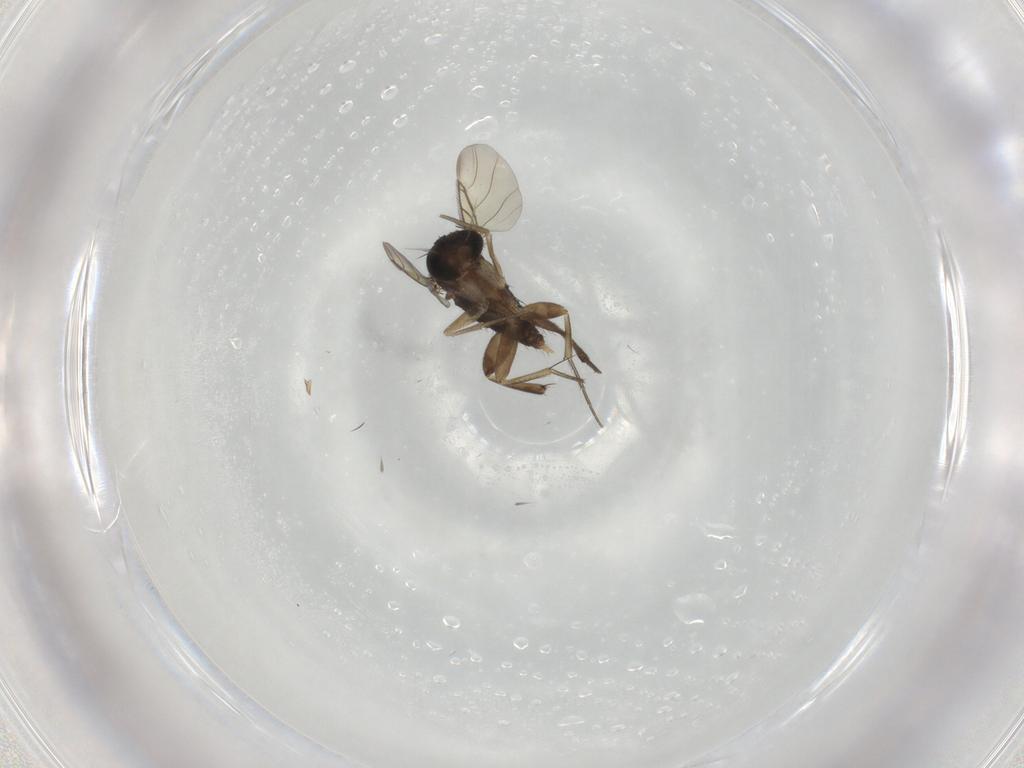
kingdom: Animalia
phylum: Arthropoda
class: Insecta
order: Diptera
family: Phoridae
